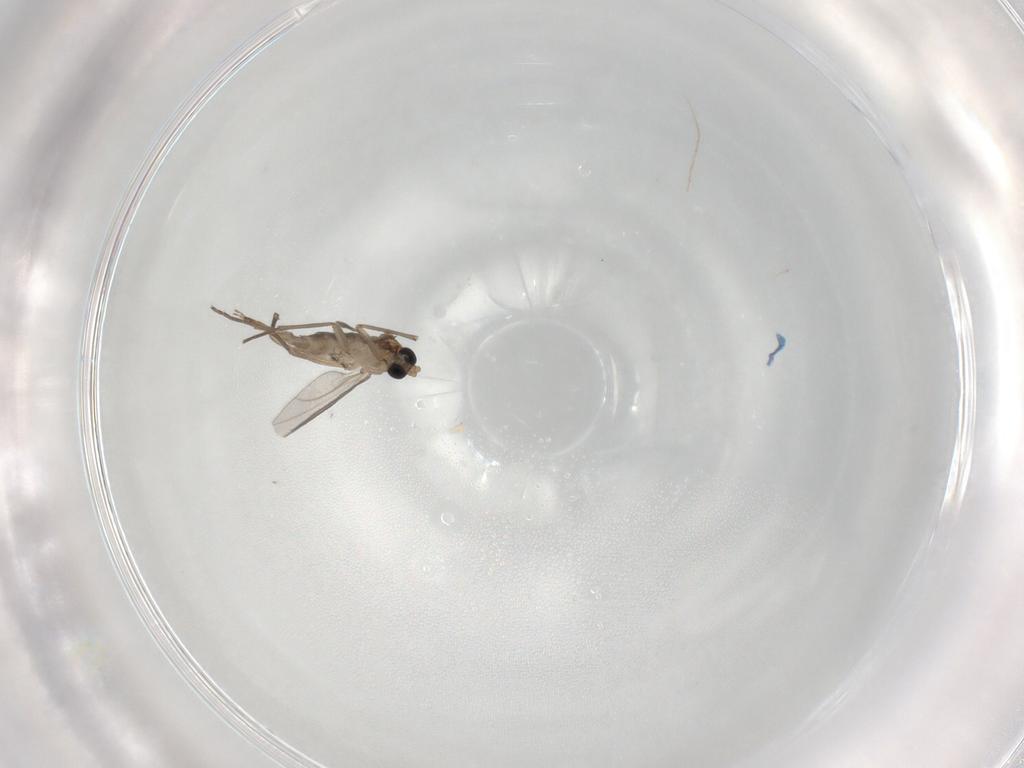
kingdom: Animalia
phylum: Arthropoda
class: Insecta
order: Diptera
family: Sciaridae
